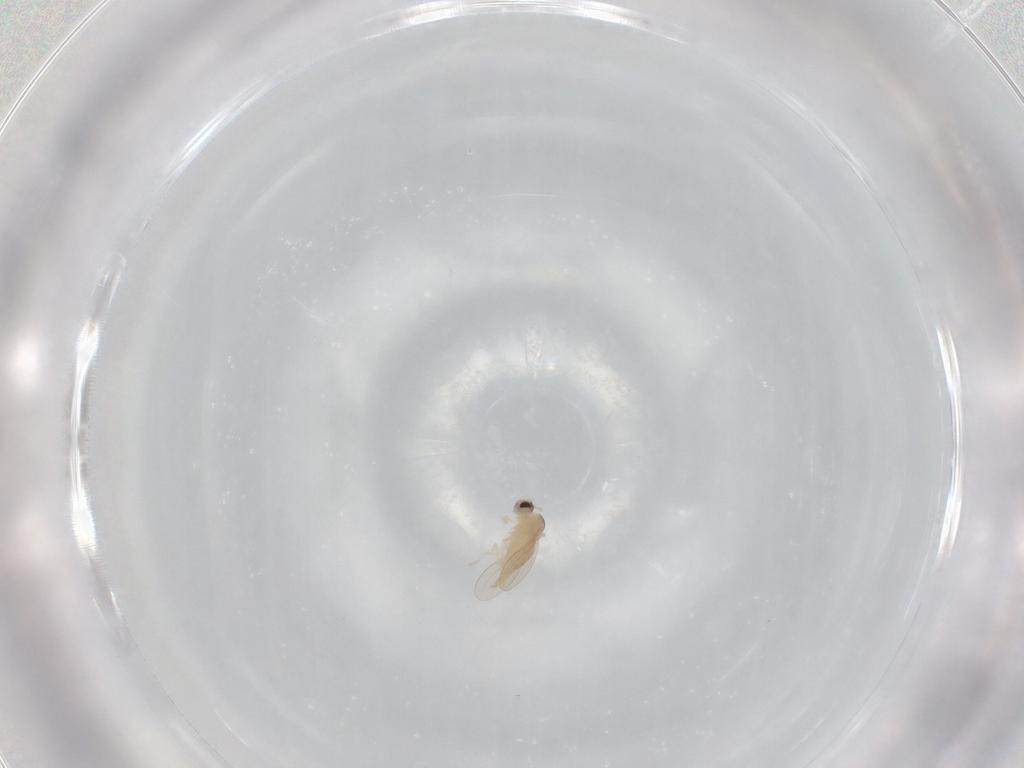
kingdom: Animalia
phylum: Arthropoda
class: Insecta
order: Diptera
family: Cecidomyiidae
